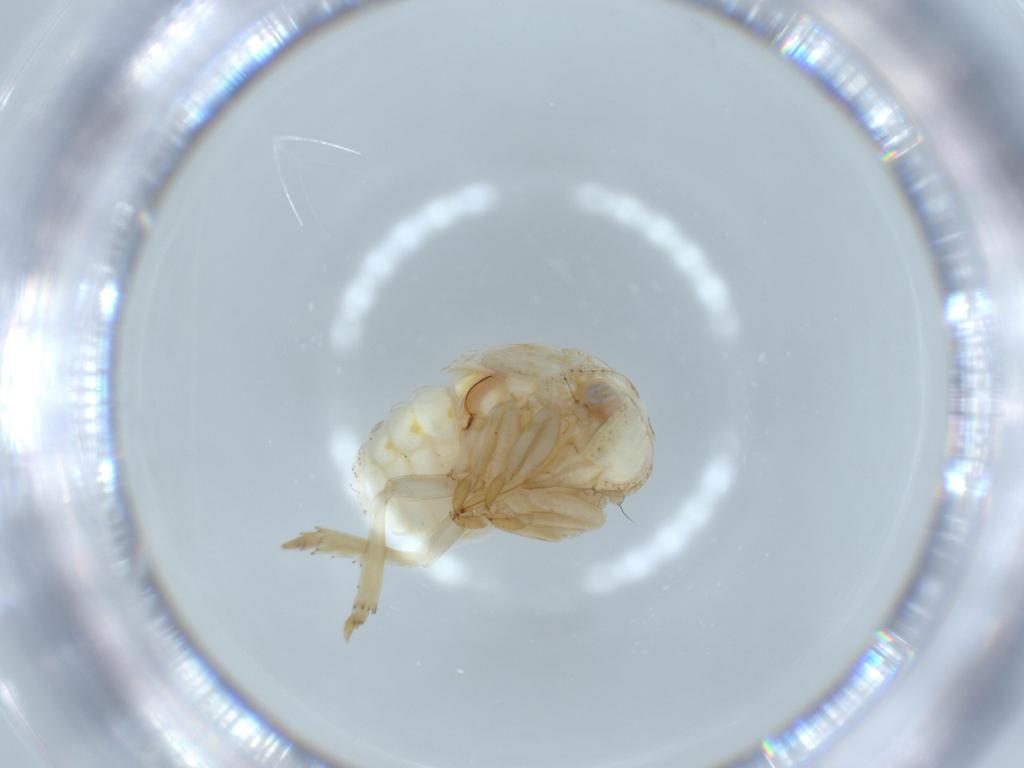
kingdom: Animalia
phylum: Arthropoda
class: Insecta
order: Hemiptera
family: Acanaloniidae
